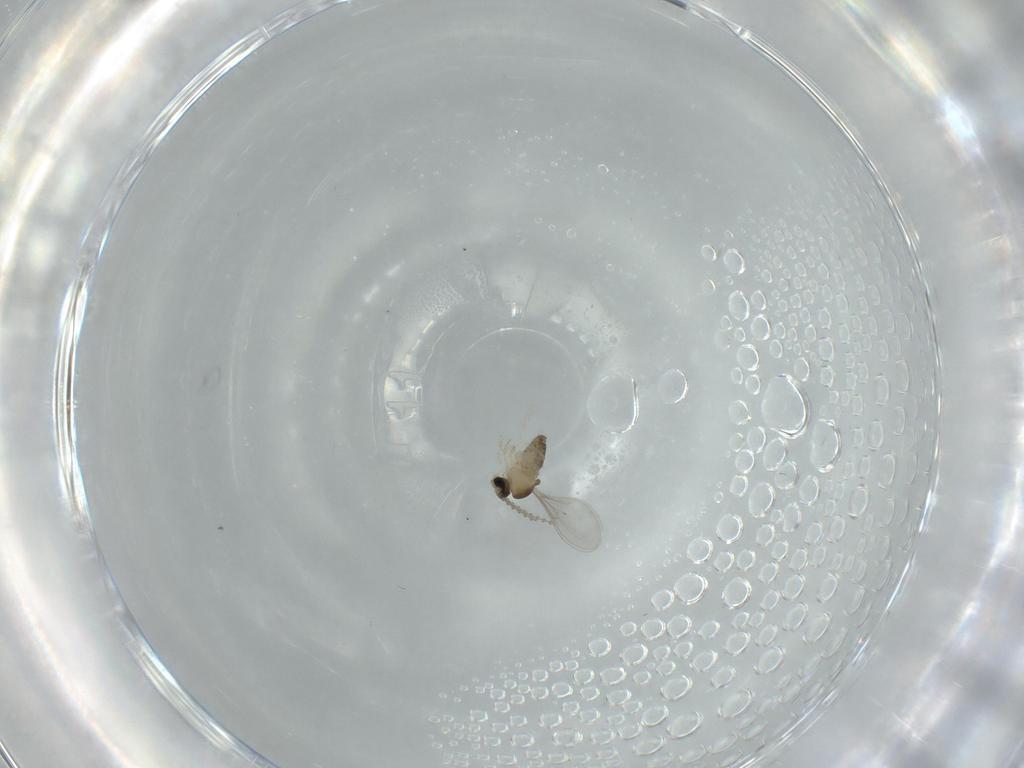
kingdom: Animalia
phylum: Arthropoda
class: Insecta
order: Diptera
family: Cecidomyiidae
